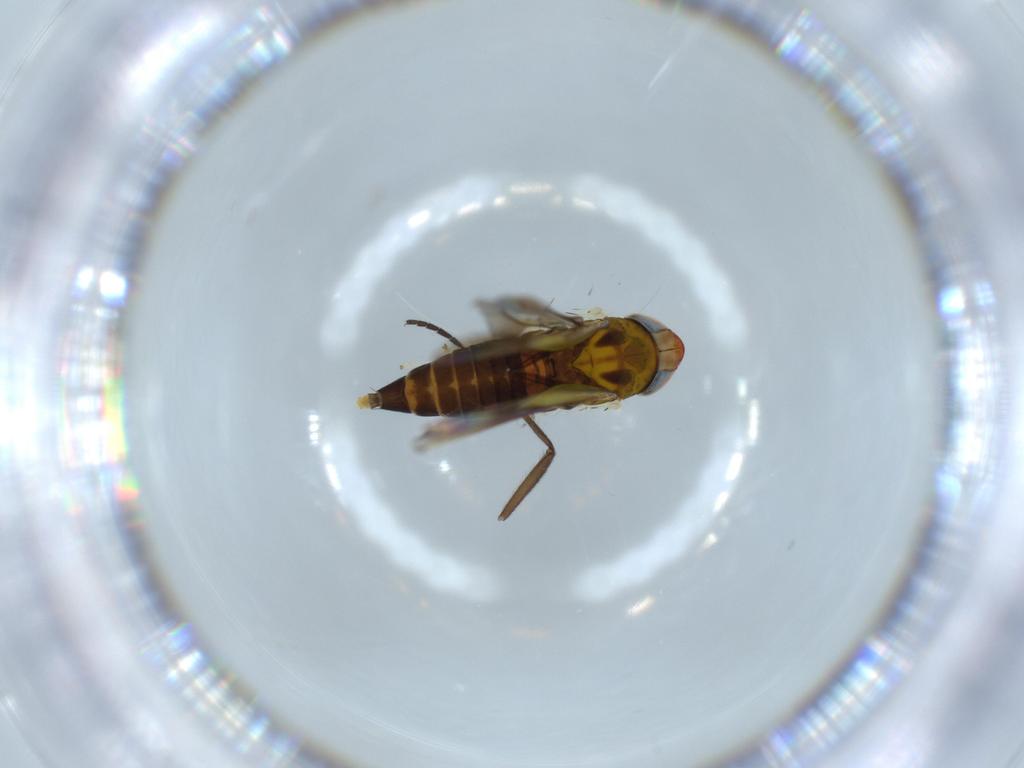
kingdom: Animalia
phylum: Arthropoda
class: Insecta
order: Hemiptera
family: Cicadellidae
